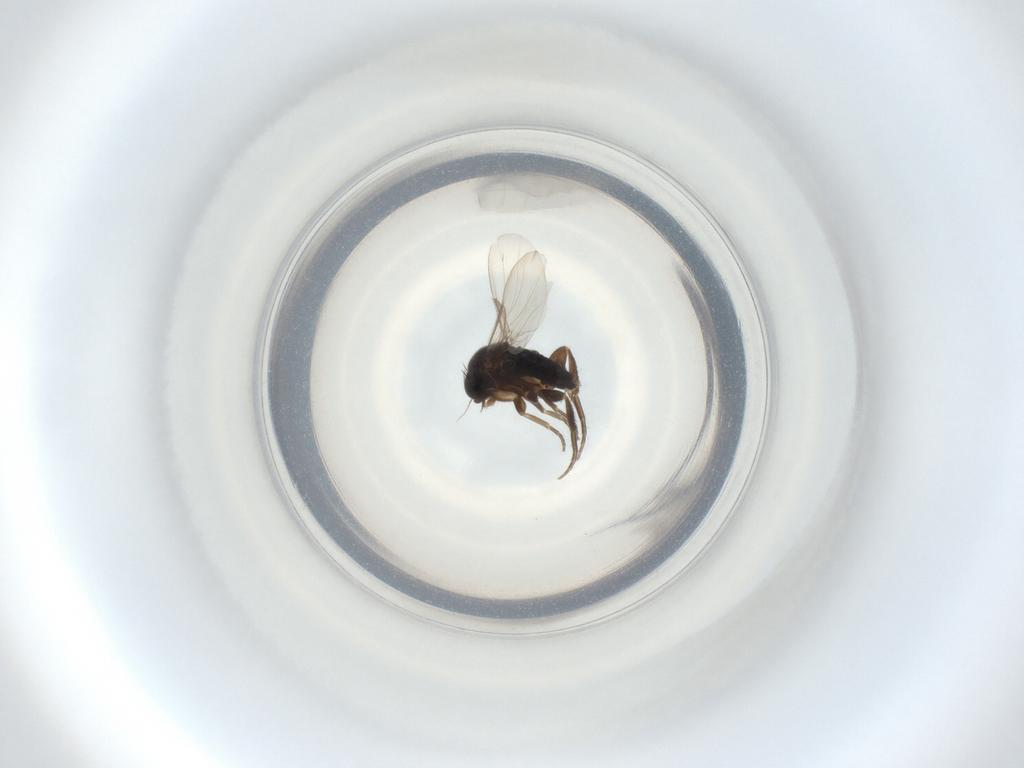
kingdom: Animalia
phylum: Arthropoda
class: Insecta
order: Diptera
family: Phoridae
